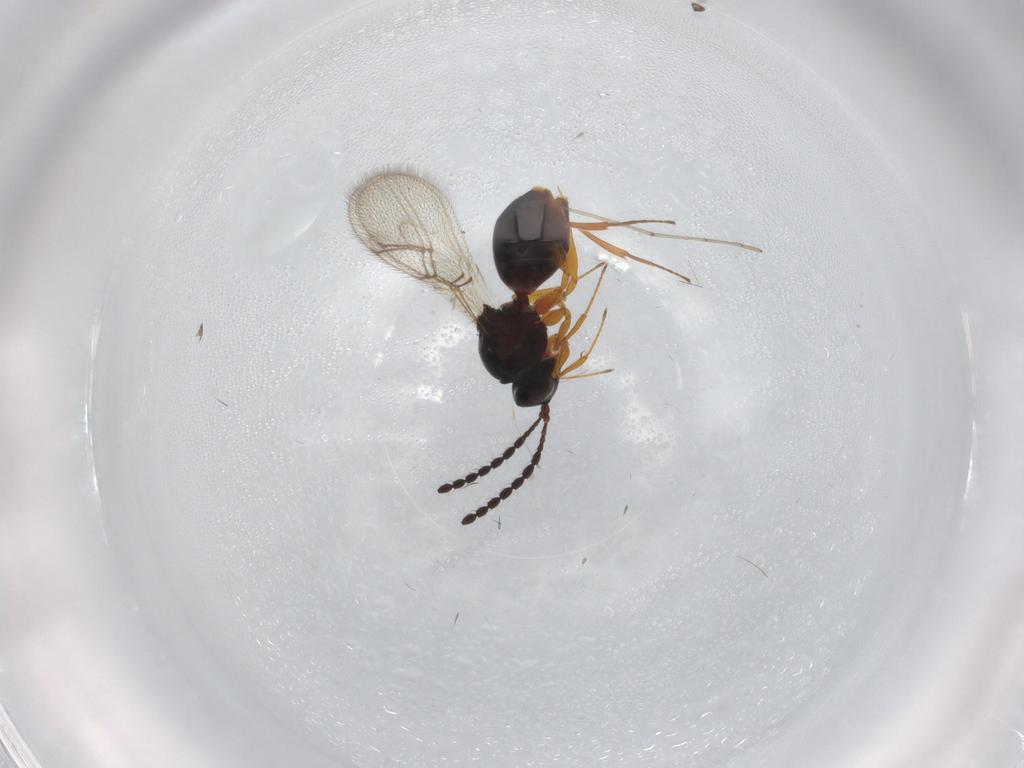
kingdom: Animalia
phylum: Arthropoda
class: Insecta
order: Hymenoptera
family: Figitidae
